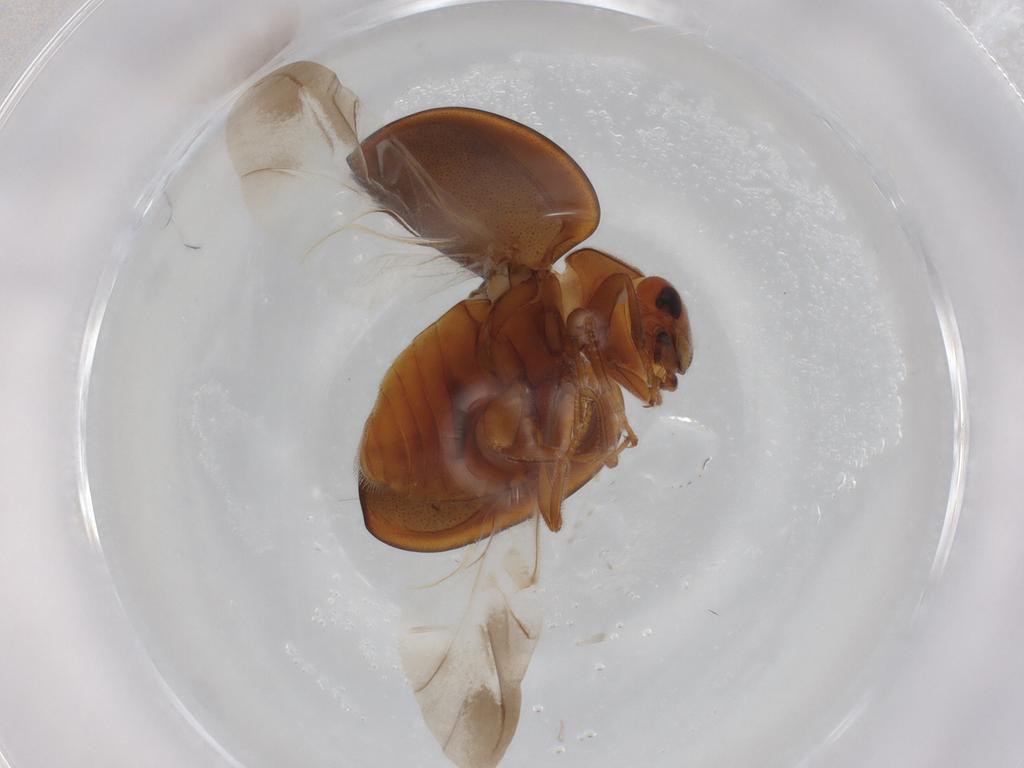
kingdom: Animalia
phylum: Arthropoda
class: Insecta
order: Coleoptera
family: Coccinellidae
